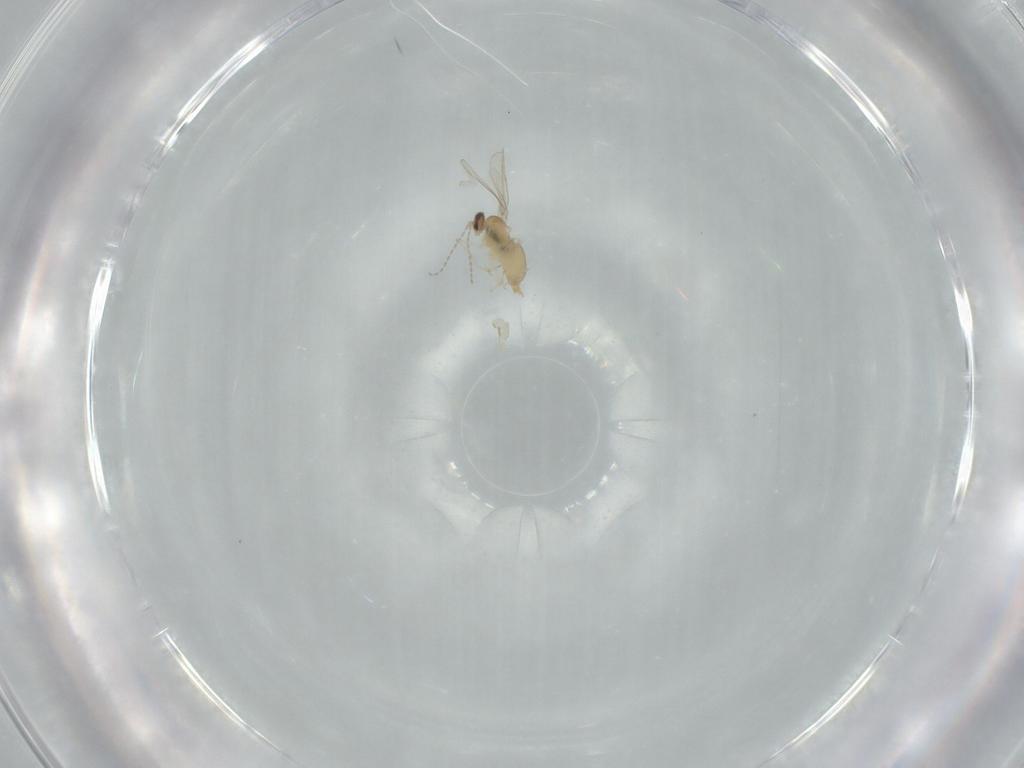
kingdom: Animalia
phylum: Arthropoda
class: Insecta
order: Diptera
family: Cecidomyiidae
